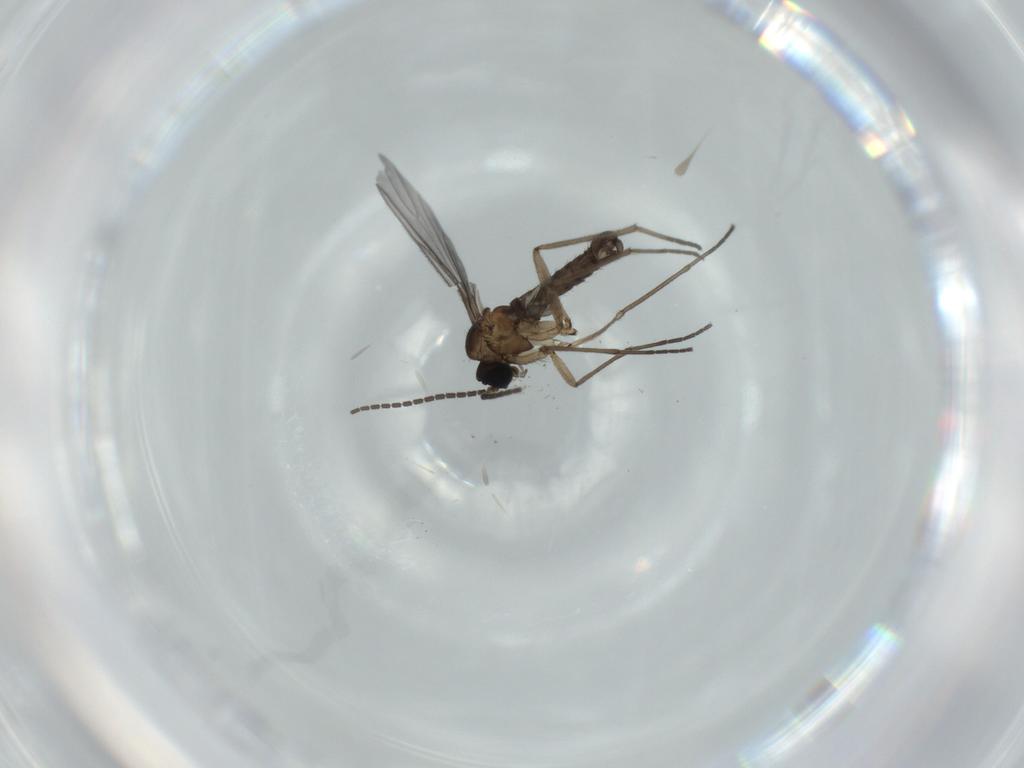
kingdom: Animalia
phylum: Arthropoda
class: Insecta
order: Diptera
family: Sciaridae
